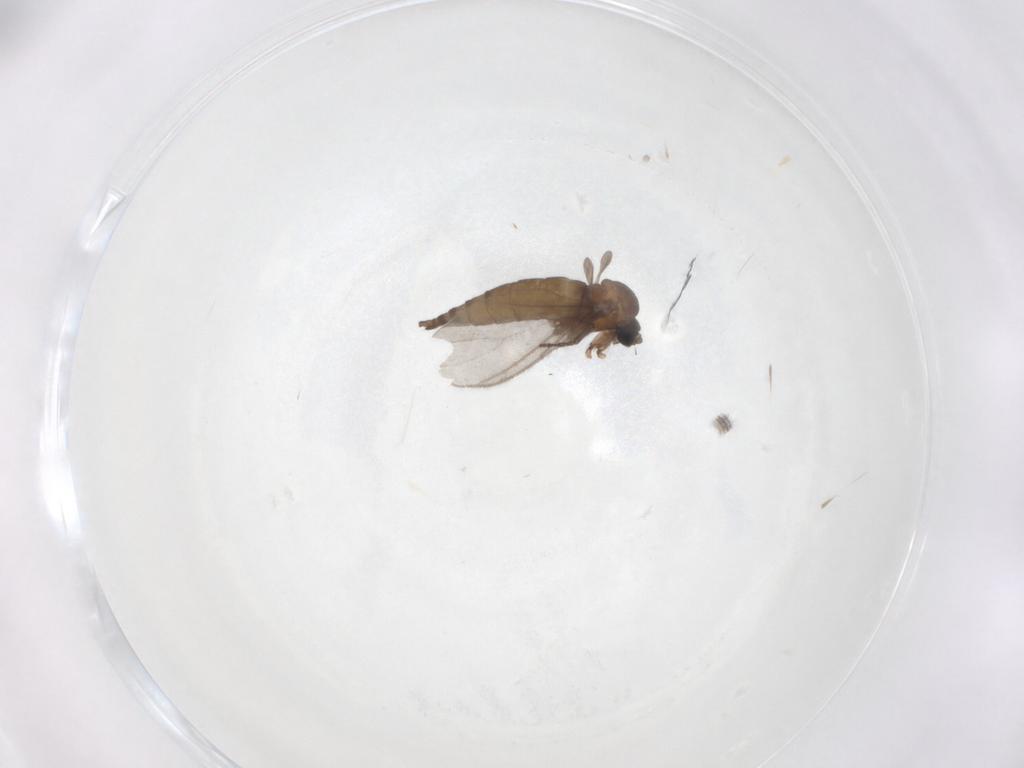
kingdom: Animalia
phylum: Arthropoda
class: Insecta
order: Diptera
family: Sciaridae
